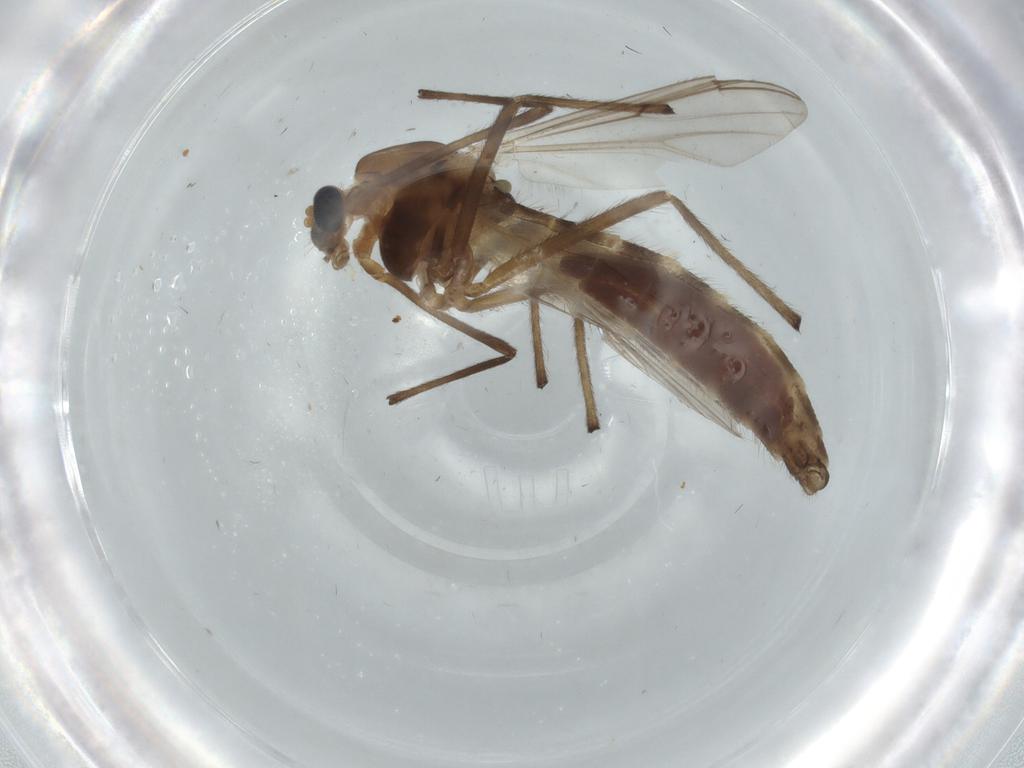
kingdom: Animalia
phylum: Arthropoda
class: Insecta
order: Diptera
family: Chironomidae
